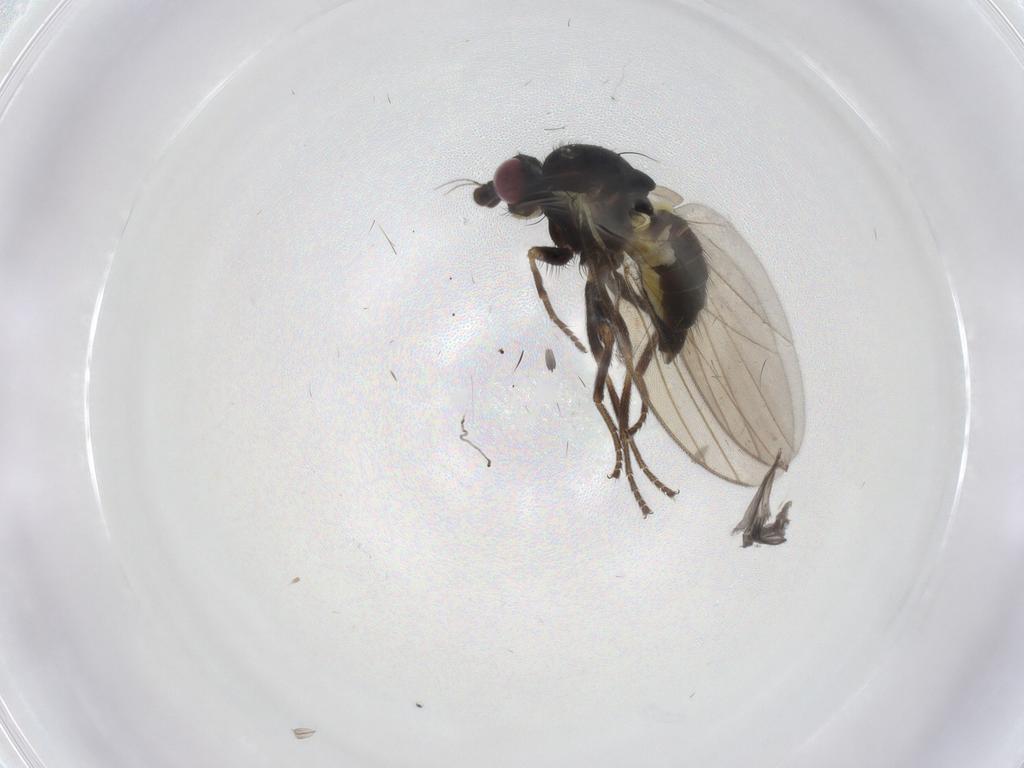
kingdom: Animalia
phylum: Arthropoda
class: Insecta
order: Diptera
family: Agromyzidae
